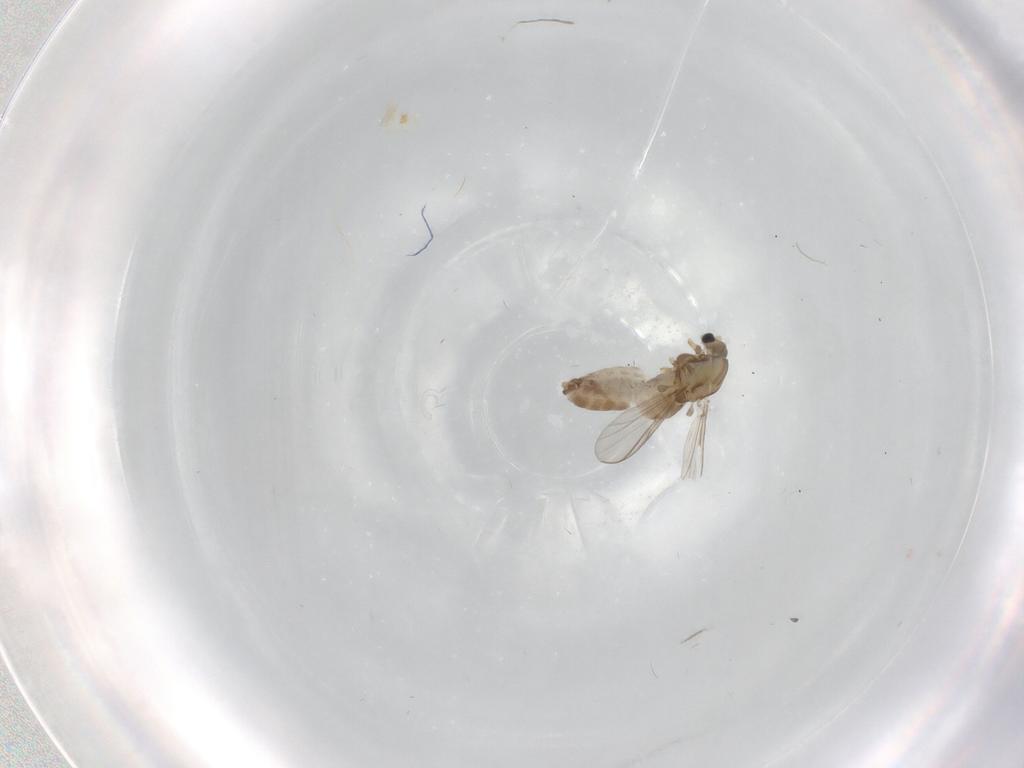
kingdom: Animalia
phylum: Arthropoda
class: Insecta
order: Diptera
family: Chironomidae
